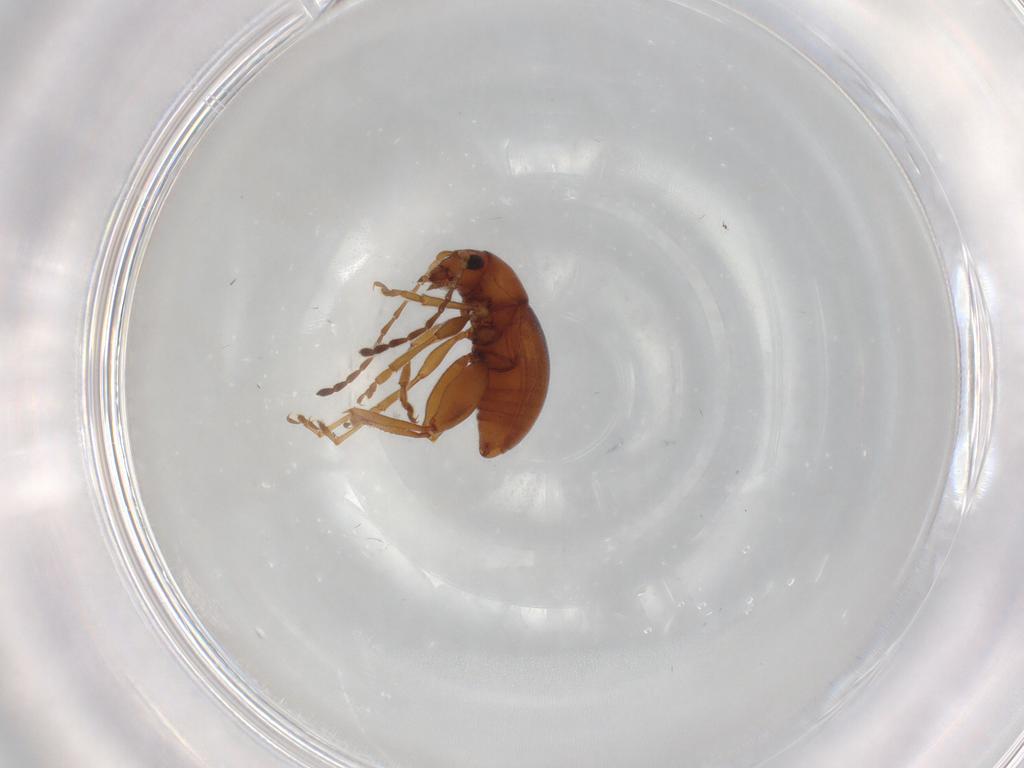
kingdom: Animalia
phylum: Arthropoda
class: Insecta
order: Coleoptera
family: Chrysomelidae
